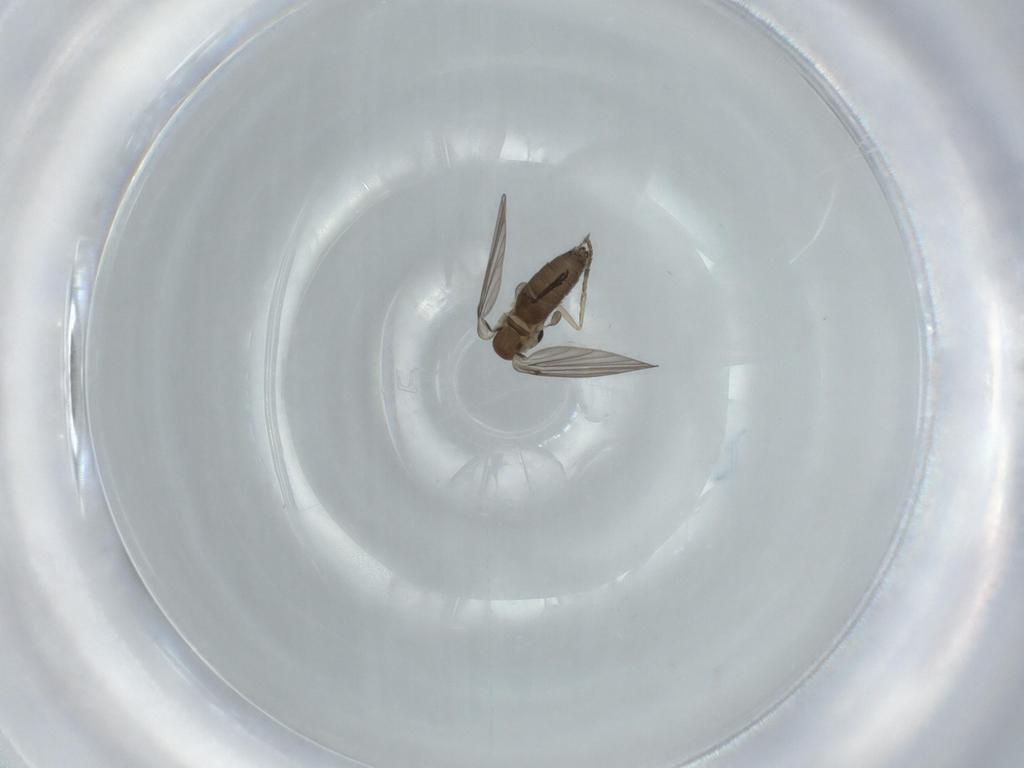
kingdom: Animalia
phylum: Arthropoda
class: Insecta
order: Diptera
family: Psychodidae
